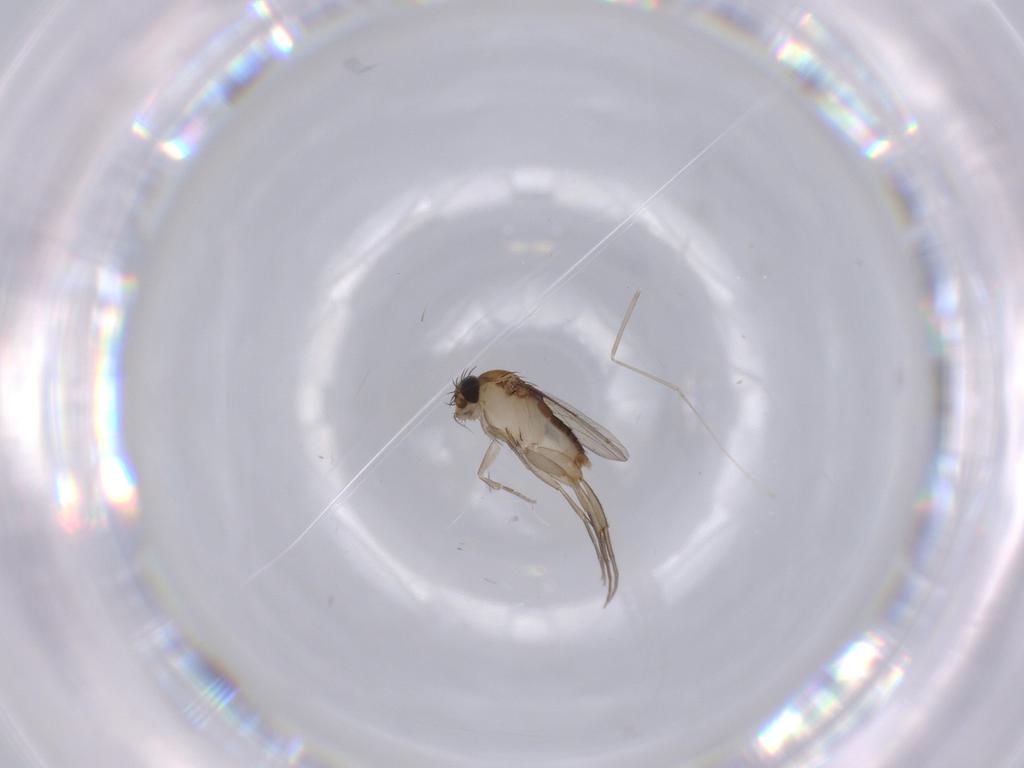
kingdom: Animalia
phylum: Arthropoda
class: Insecta
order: Diptera
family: Phoridae
